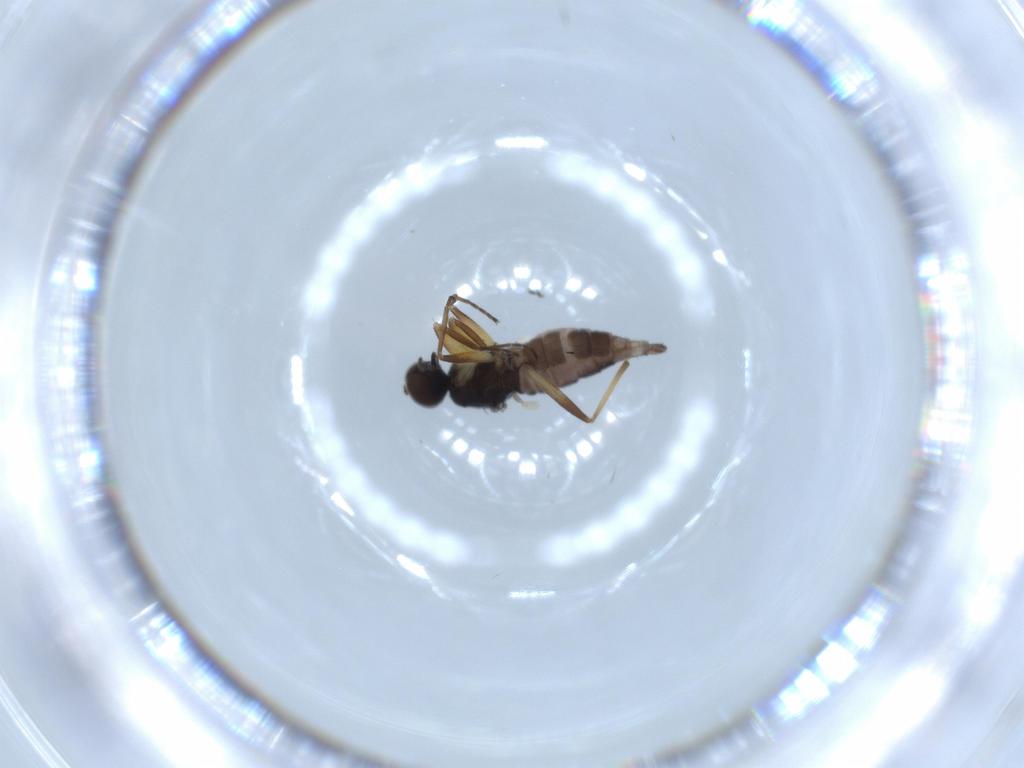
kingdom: Animalia
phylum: Arthropoda
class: Insecta
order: Diptera
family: Hybotidae
